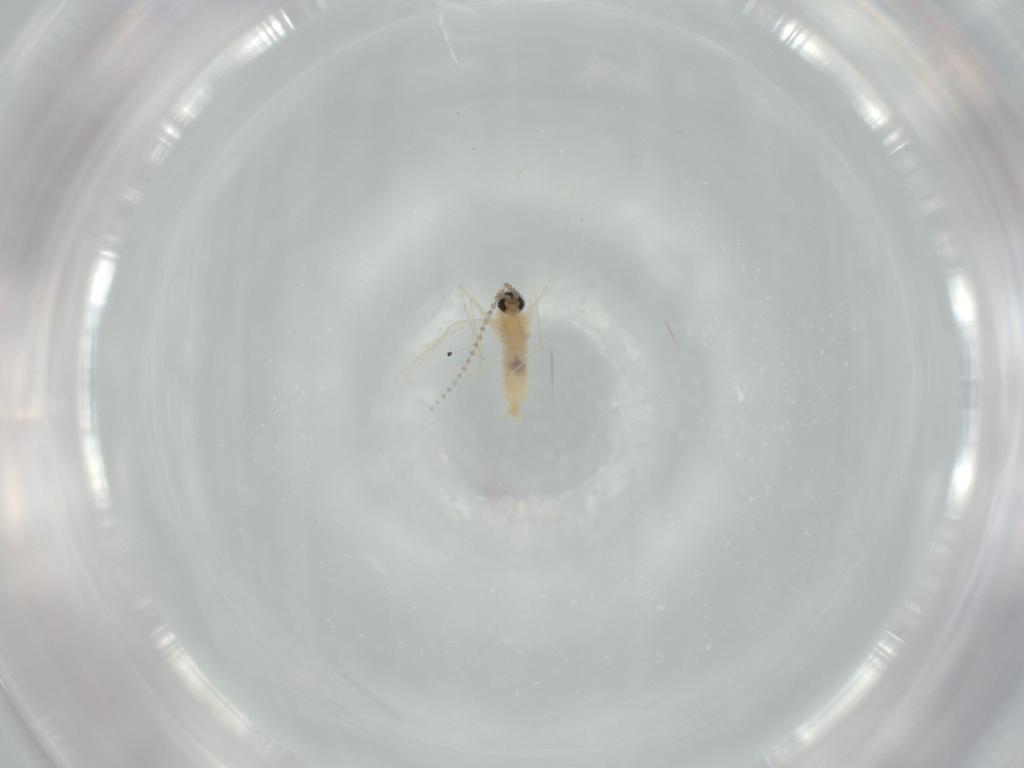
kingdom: Animalia
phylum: Arthropoda
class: Insecta
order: Diptera
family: Cecidomyiidae
